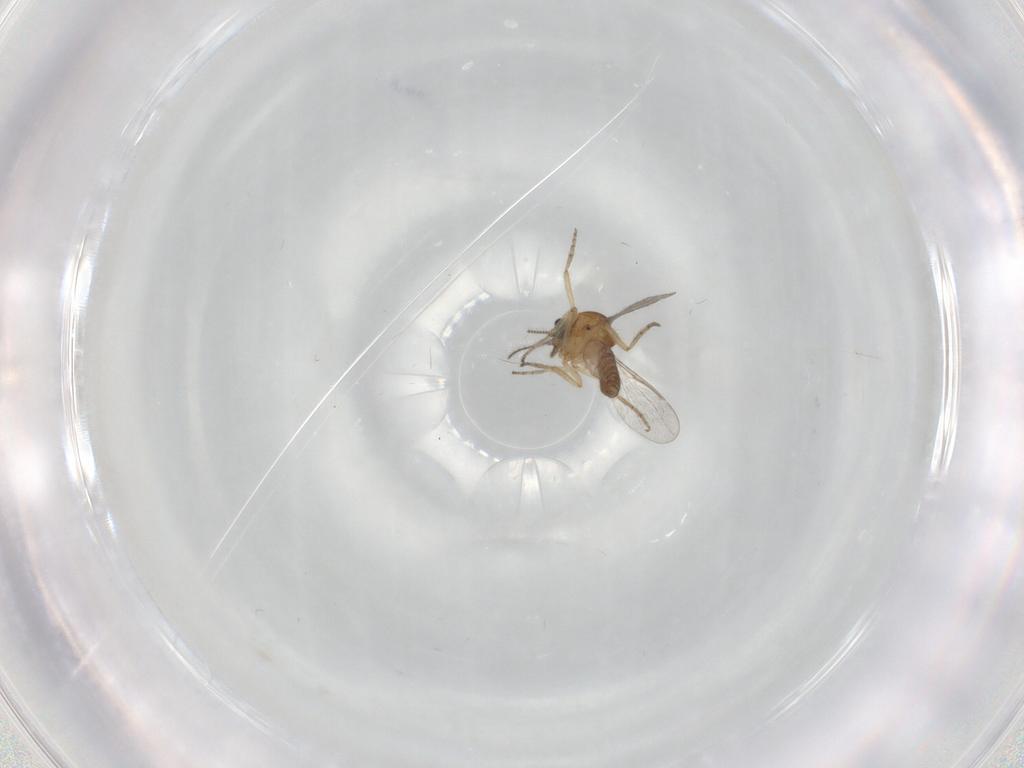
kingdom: Animalia
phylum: Arthropoda
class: Insecta
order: Diptera
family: Ceratopogonidae
